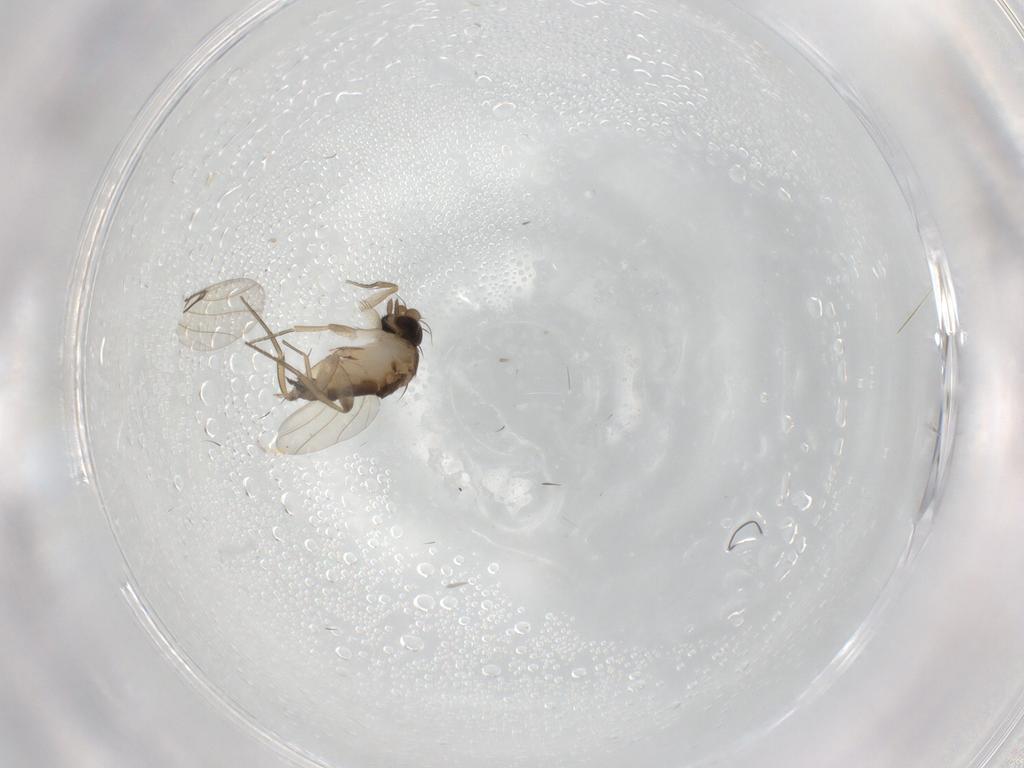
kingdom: Animalia
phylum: Arthropoda
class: Insecta
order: Diptera
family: Phoridae
